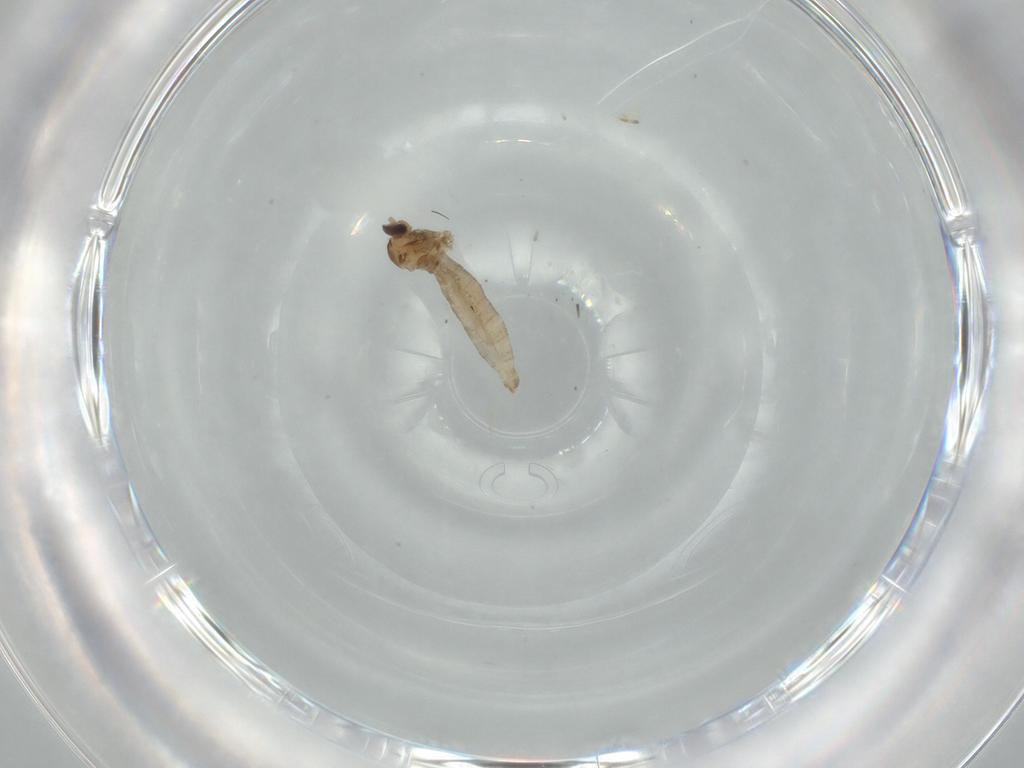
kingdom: Animalia
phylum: Arthropoda
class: Insecta
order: Diptera
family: Cecidomyiidae
